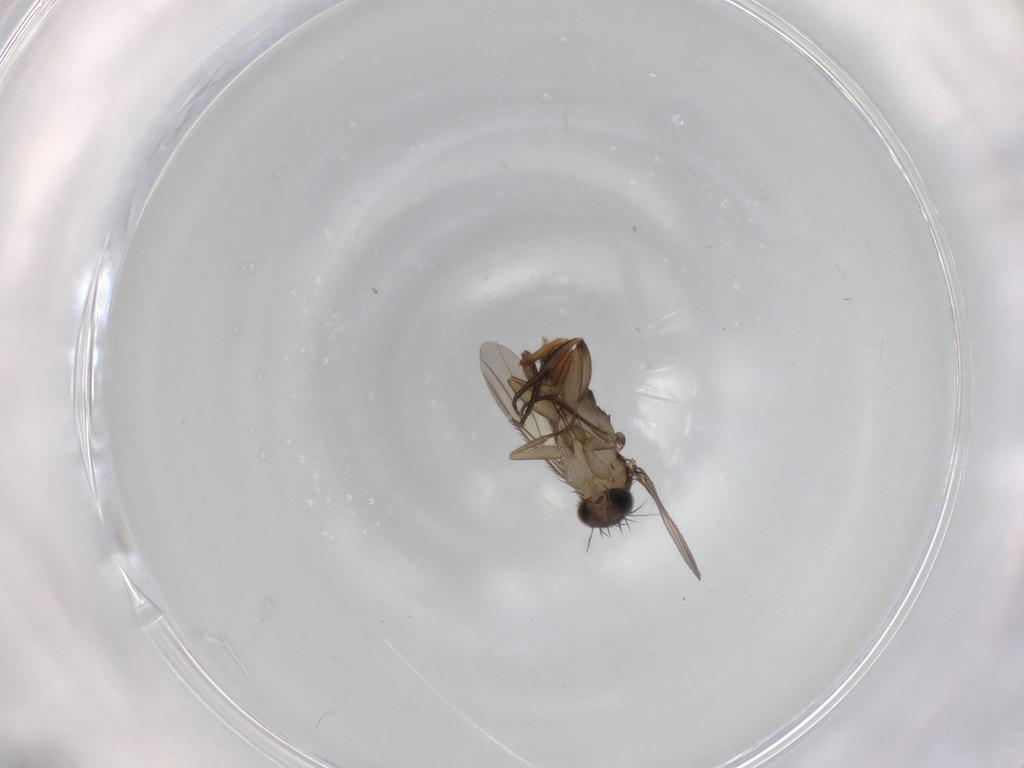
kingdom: Animalia
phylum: Arthropoda
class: Insecta
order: Diptera
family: Phoridae
